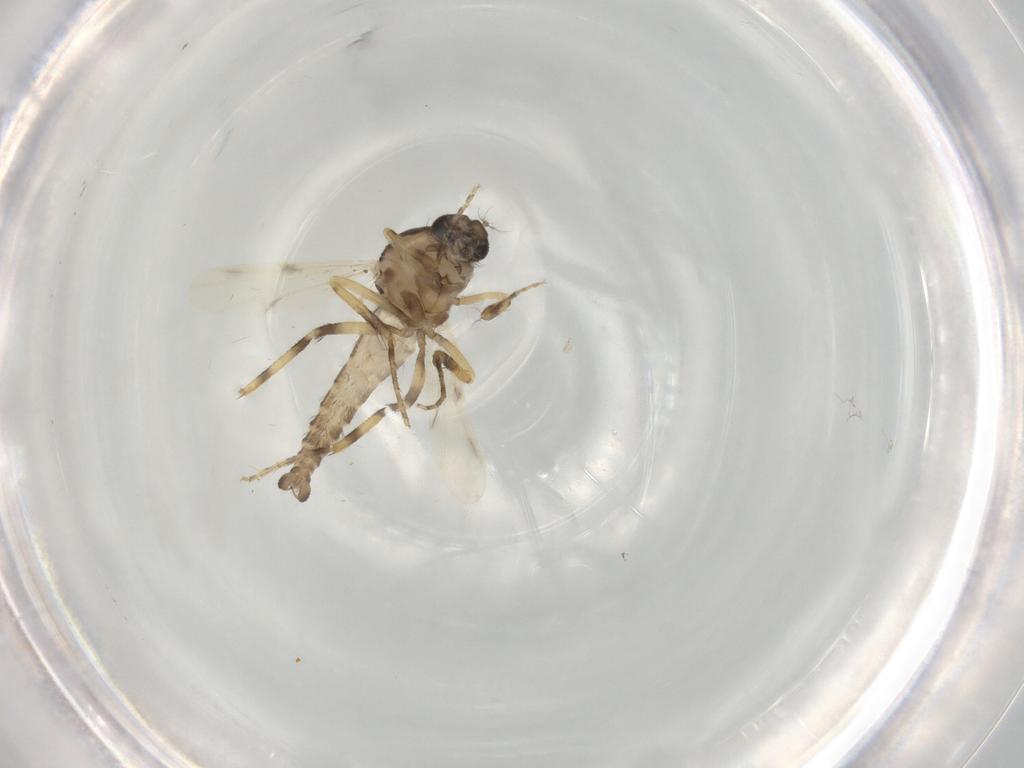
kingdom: Animalia
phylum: Arthropoda
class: Insecta
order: Diptera
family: Ceratopogonidae
